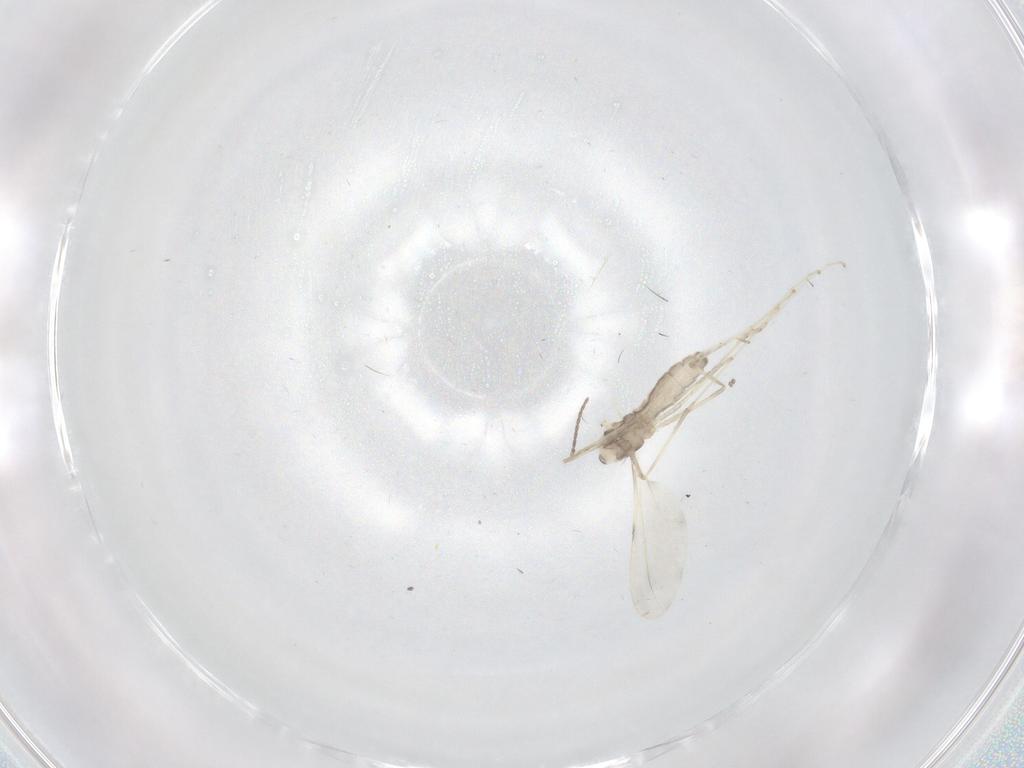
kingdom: Animalia
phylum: Arthropoda
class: Insecta
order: Diptera
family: Cecidomyiidae
